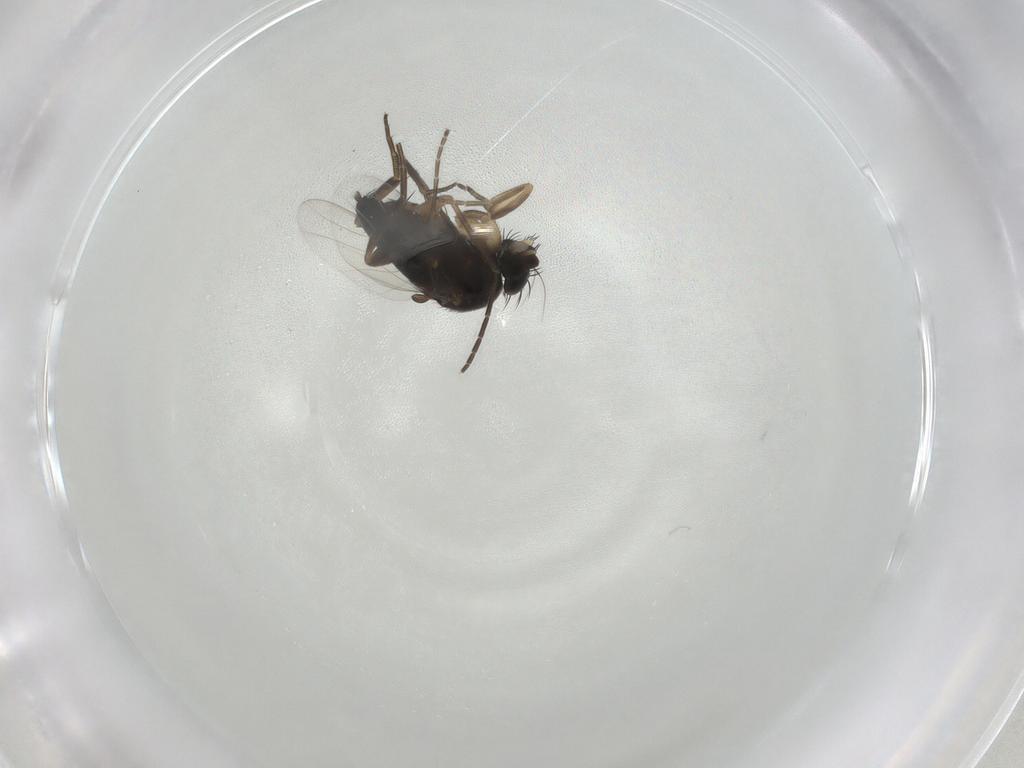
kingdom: Animalia
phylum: Arthropoda
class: Insecta
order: Diptera
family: Phoridae
